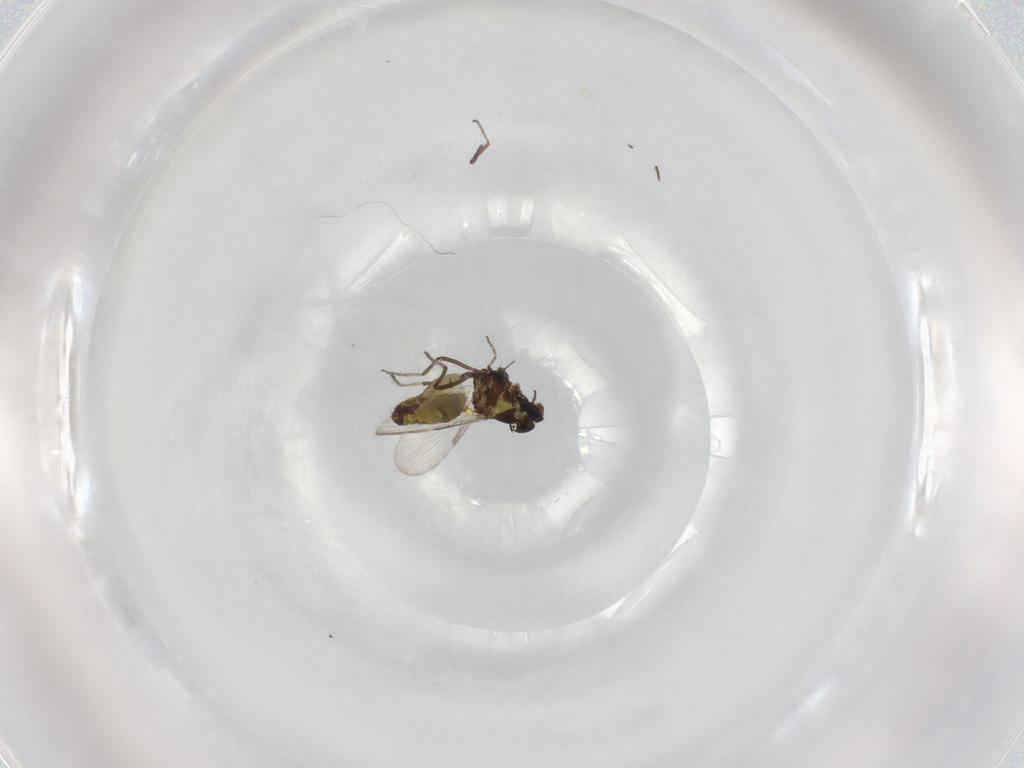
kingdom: Animalia
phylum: Arthropoda
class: Insecta
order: Diptera
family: Ceratopogonidae
